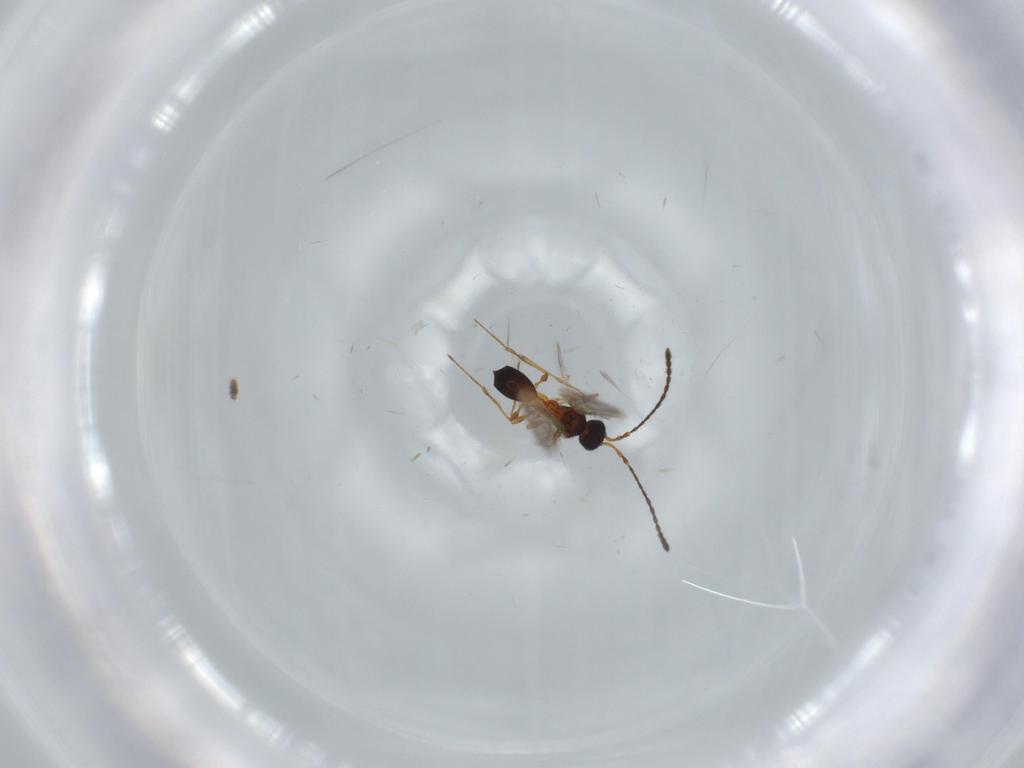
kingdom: Animalia
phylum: Arthropoda
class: Insecta
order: Hymenoptera
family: Diapriidae
